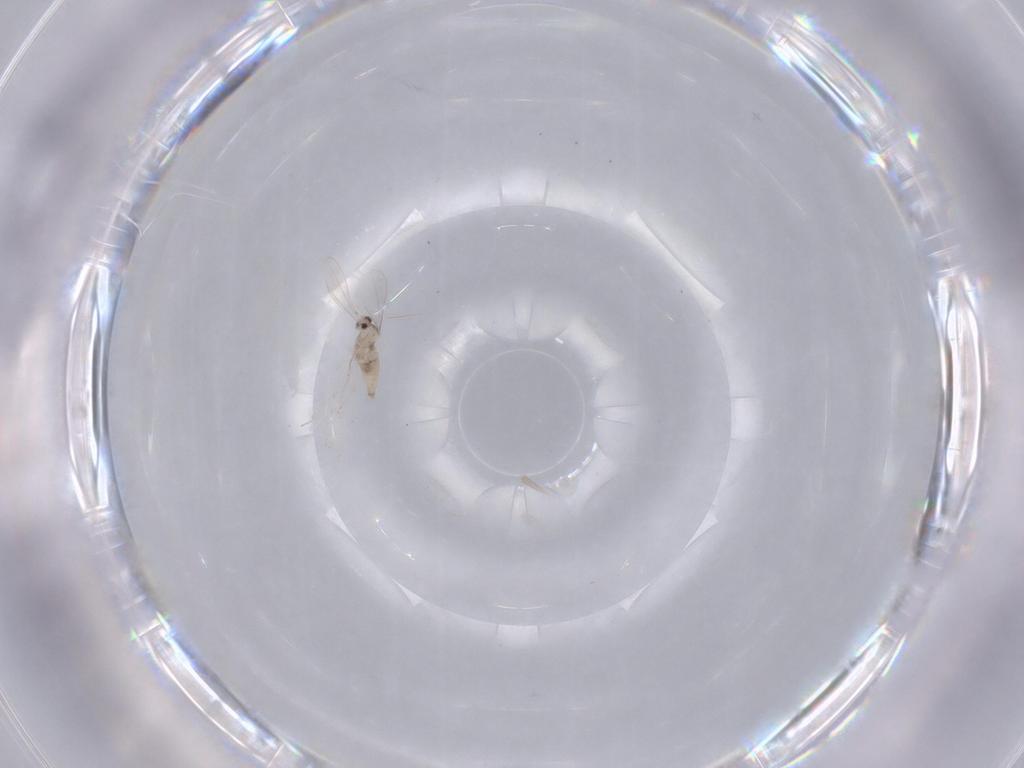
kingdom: Animalia
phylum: Arthropoda
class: Insecta
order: Diptera
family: Cecidomyiidae
